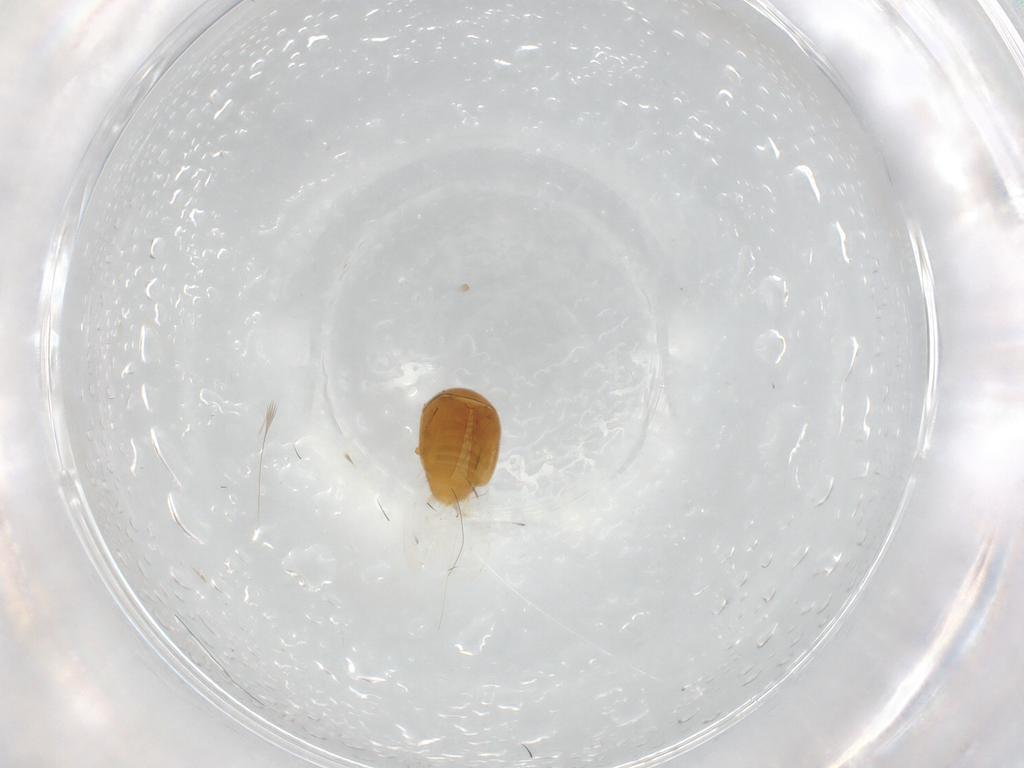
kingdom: Animalia
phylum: Arthropoda
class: Insecta
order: Coleoptera
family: Corylophidae
